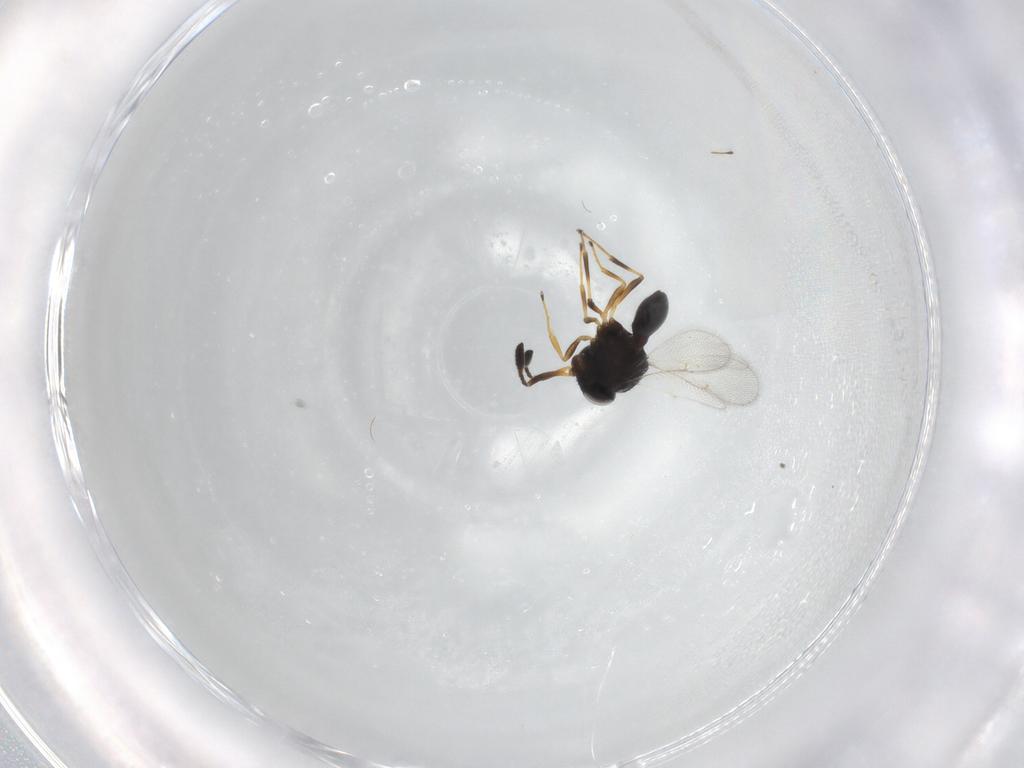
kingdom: Animalia
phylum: Arthropoda
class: Insecta
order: Hymenoptera
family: Scelionidae
